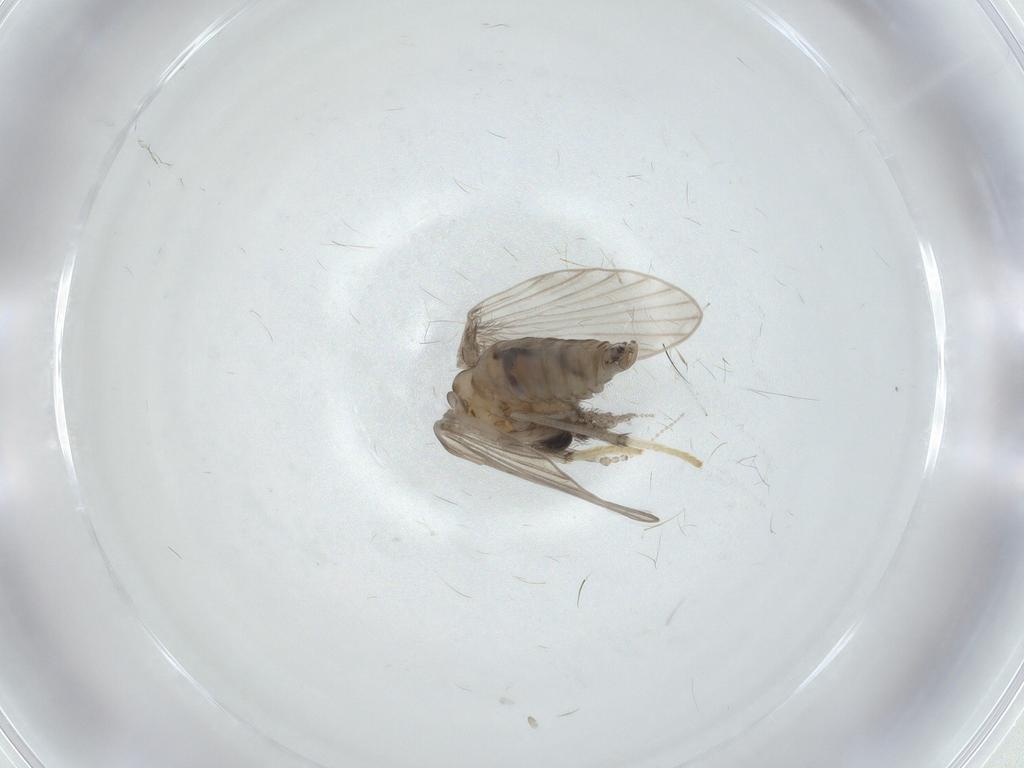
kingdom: Animalia
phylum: Arthropoda
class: Insecta
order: Diptera
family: Psychodidae
